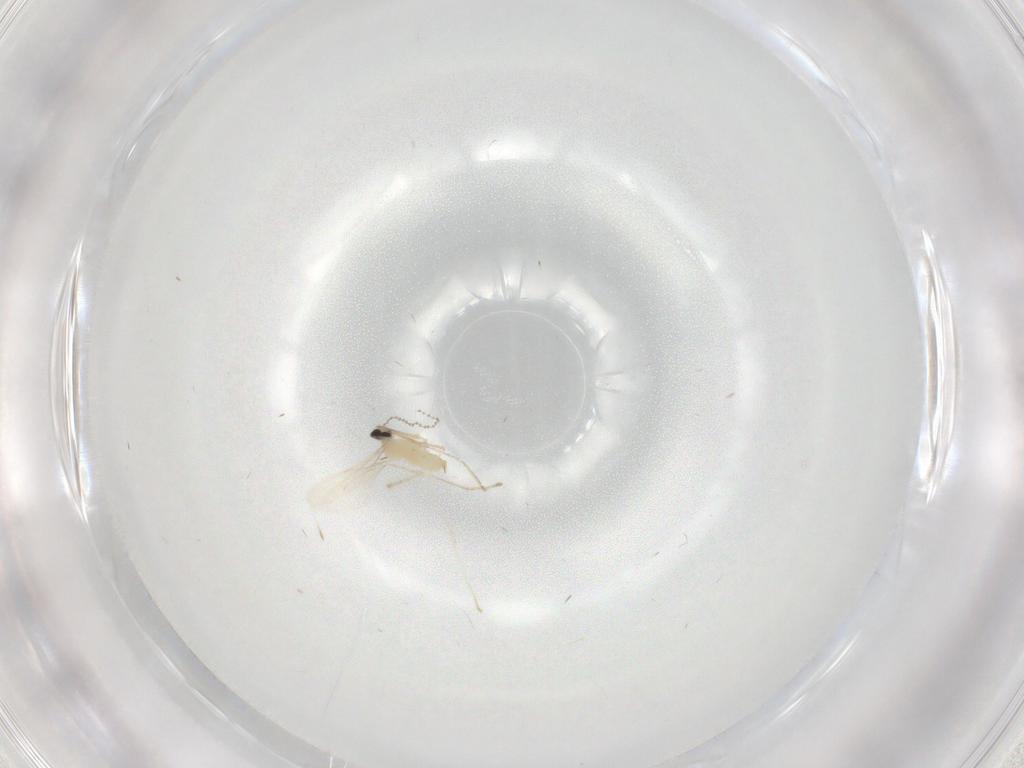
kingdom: Animalia
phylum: Arthropoda
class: Insecta
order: Diptera
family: Cecidomyiidae
